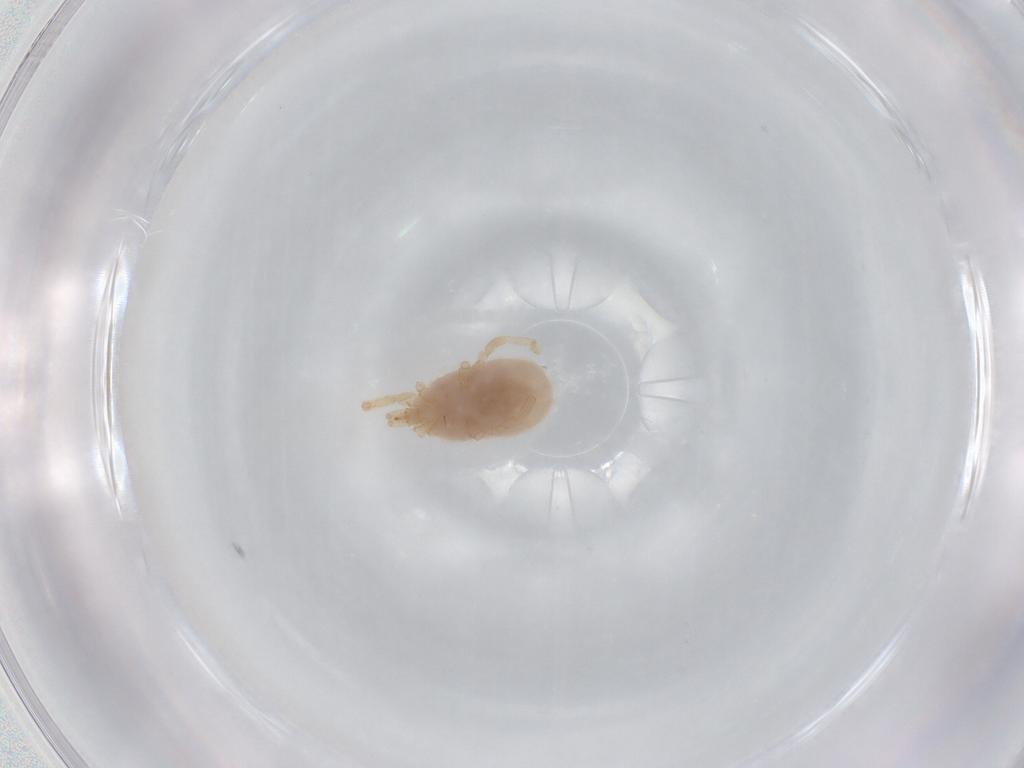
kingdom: Animalia
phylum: Arthropoda
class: Arachnida
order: Trombidiformes
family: Erythraeidae
